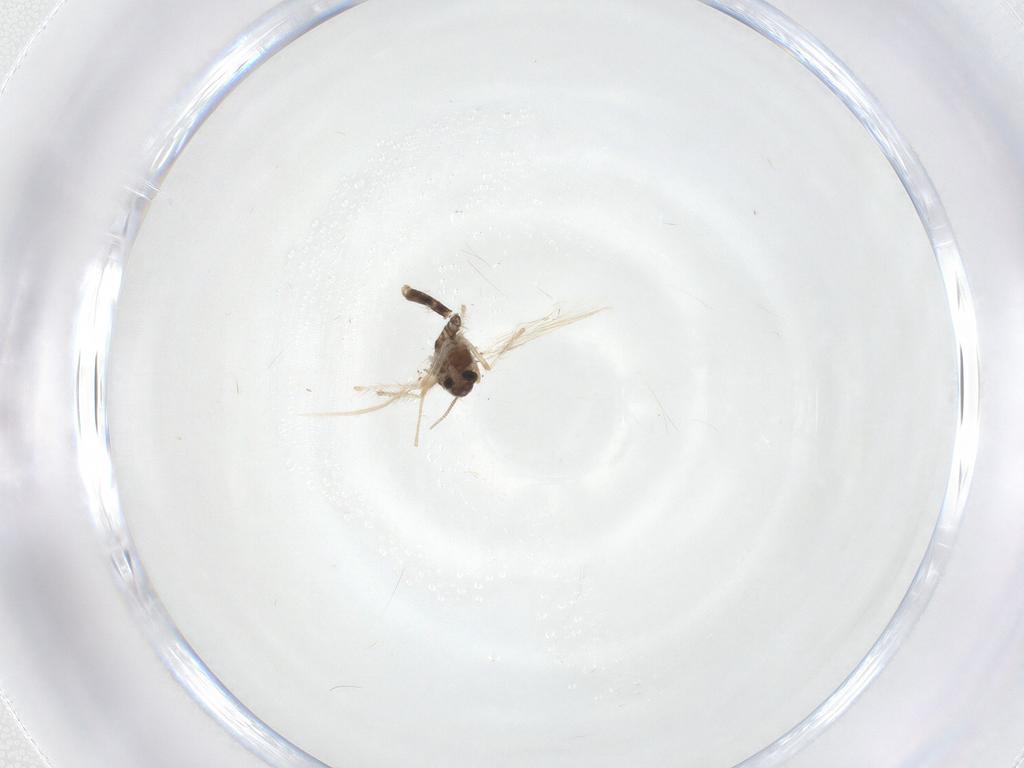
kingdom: Animalia
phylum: Arthropoda
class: Insecta
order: Diptera
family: Chironomidae
